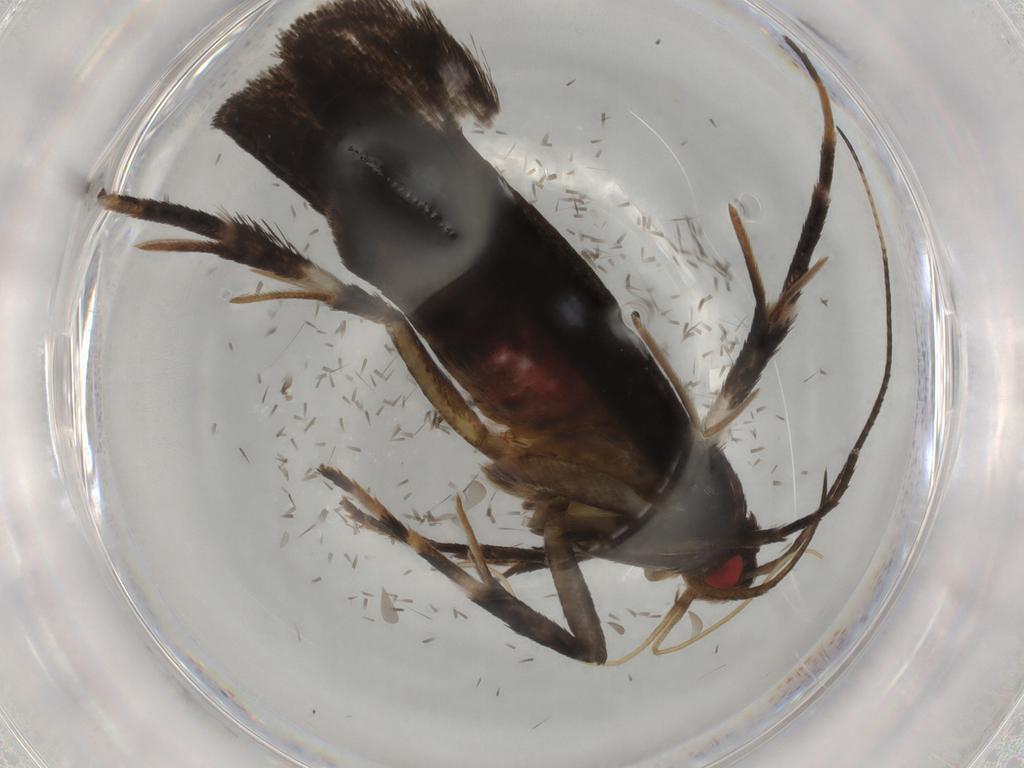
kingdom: Animalia
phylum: Arthropoda
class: Insecta
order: Lepidoptera
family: Gelechiidae
